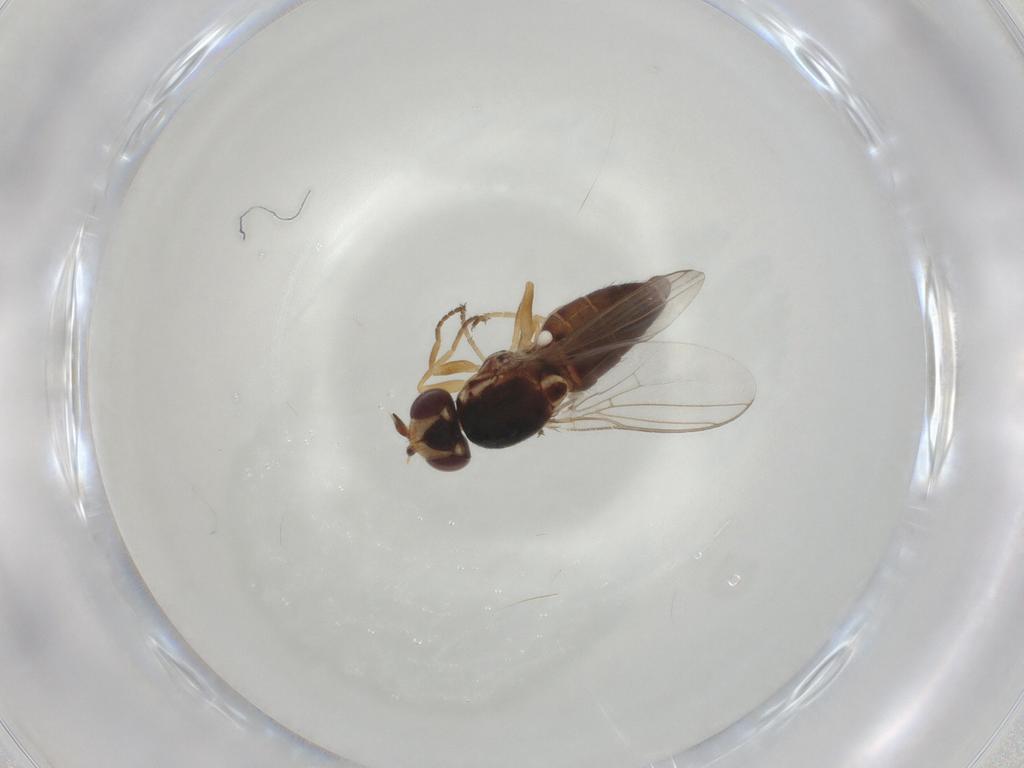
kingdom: Animalia
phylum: Arthropoda
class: Insecta
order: Diptera
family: Chloropidae
